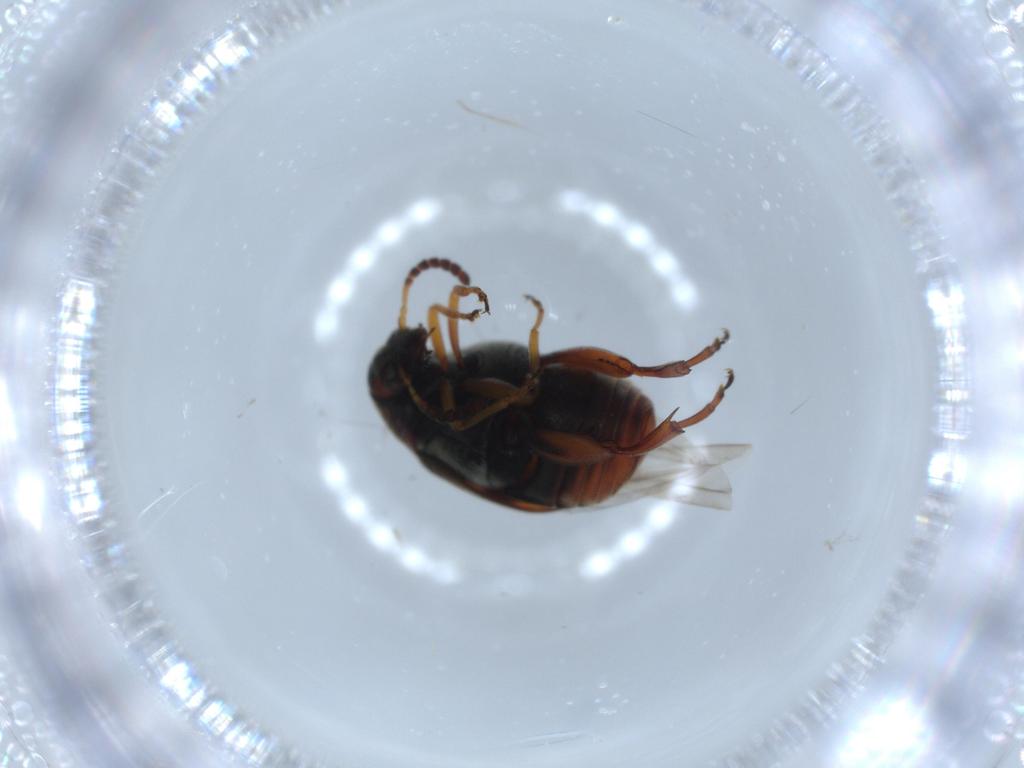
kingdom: Animalia
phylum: Arthropoda
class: Insecta
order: Coleoptera
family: Chrysomelidae
